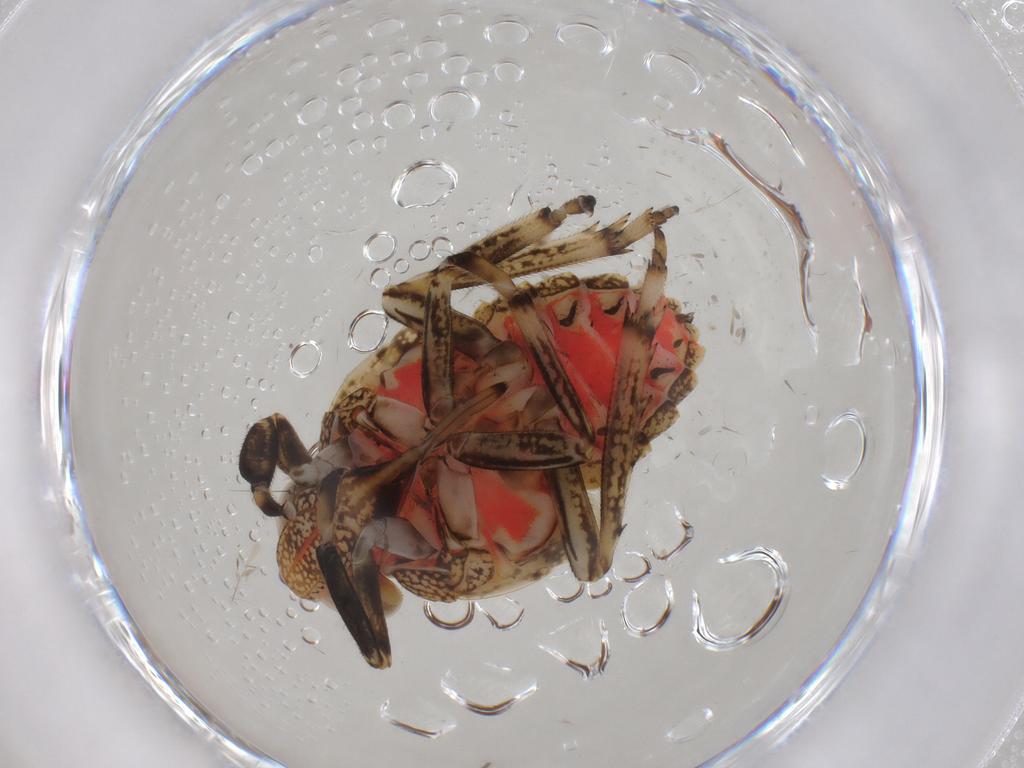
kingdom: Animalia
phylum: Arthropoda
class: Insecta
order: Hemiptera
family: Issidae
